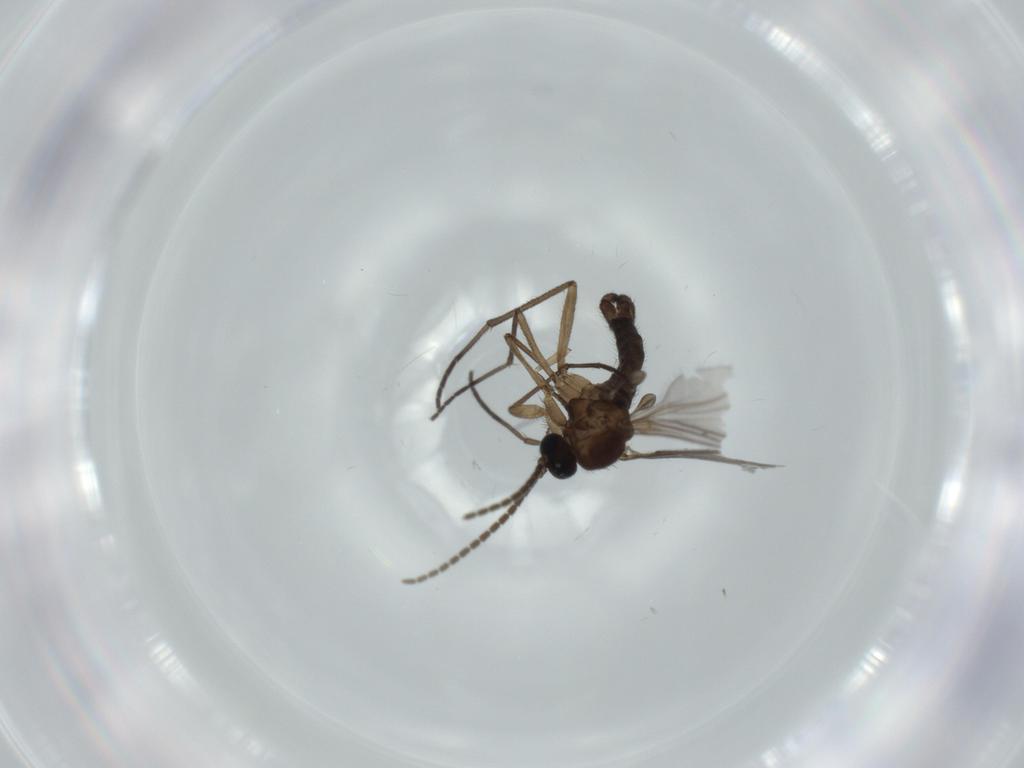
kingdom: Animalia
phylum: Arthropoda
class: Insecta
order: Diptera
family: Sciaridae
